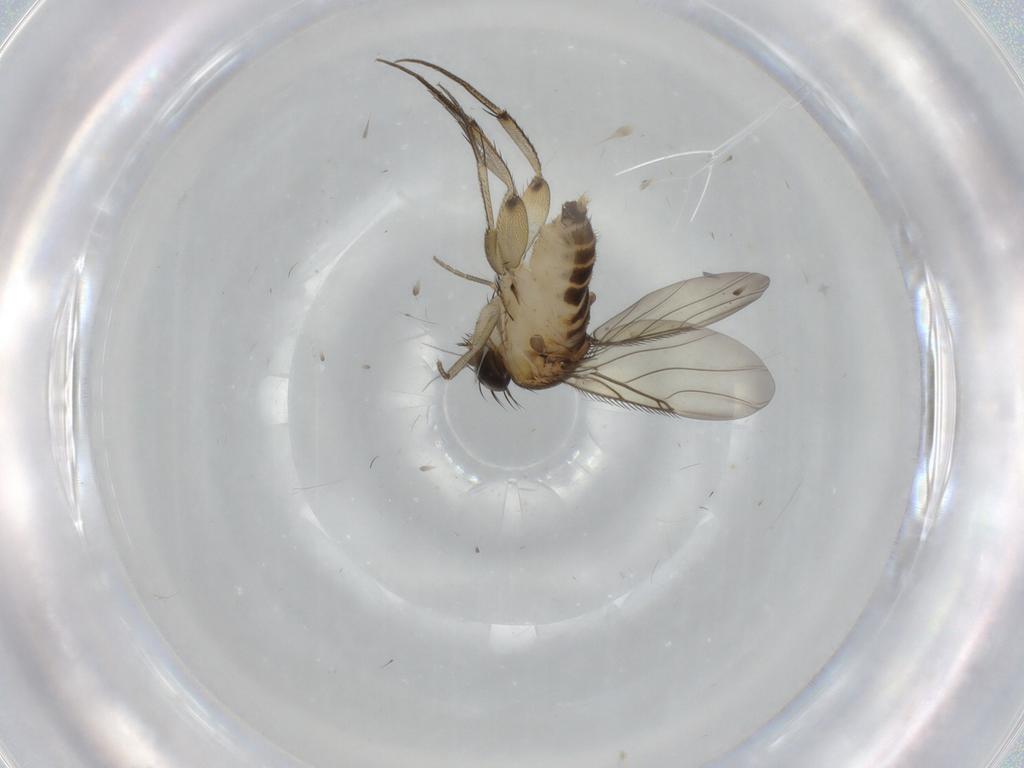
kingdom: Animalia
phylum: Arthropoda
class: Insecta
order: Diptera
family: Phoridae
